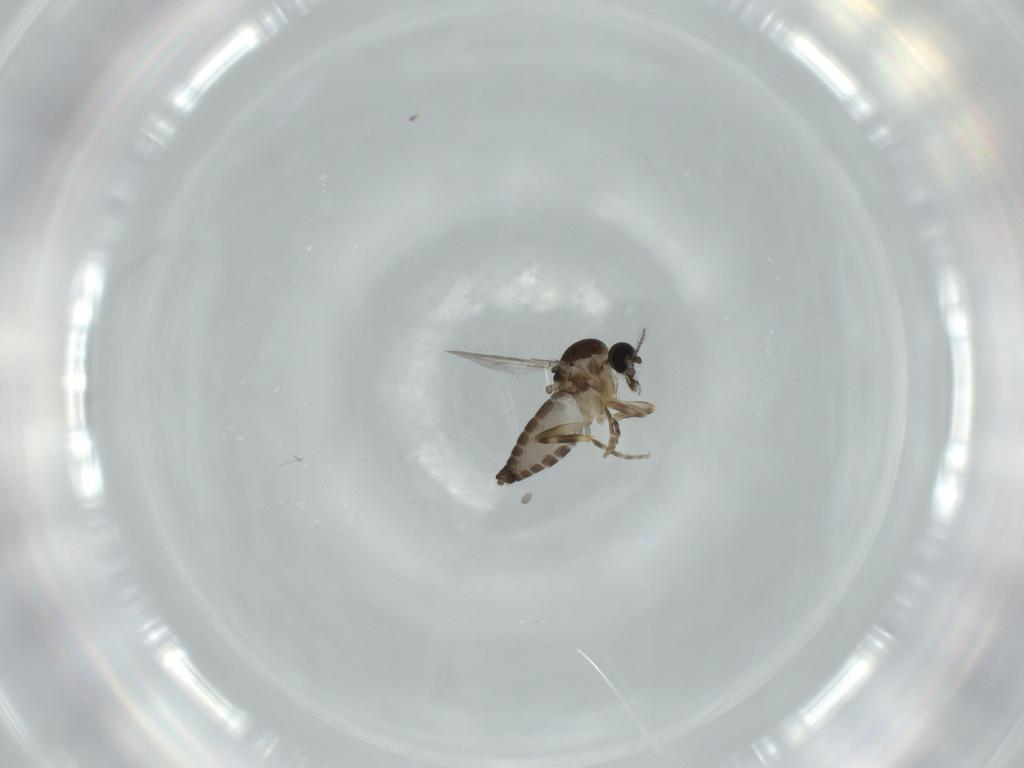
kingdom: Animalia
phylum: Arthropoda
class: Insecta
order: Diptera
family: Ceratopogonidae
